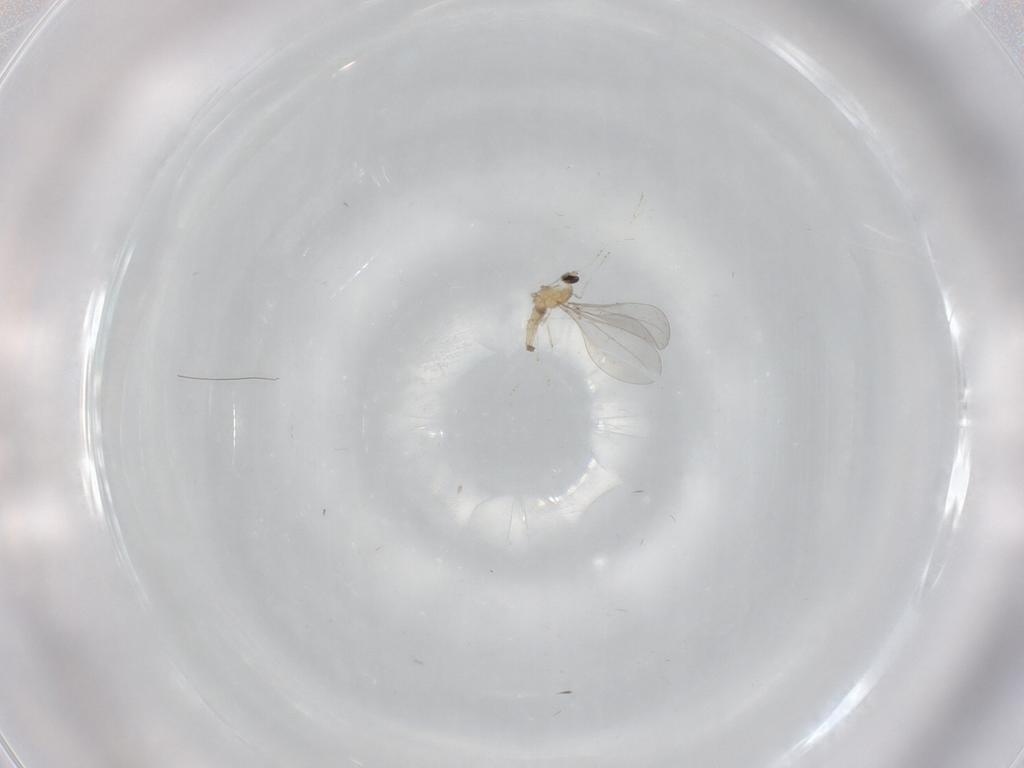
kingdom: Animalia
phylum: Arthropoda
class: Insecta
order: Diptera
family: Cecidomyiidae
